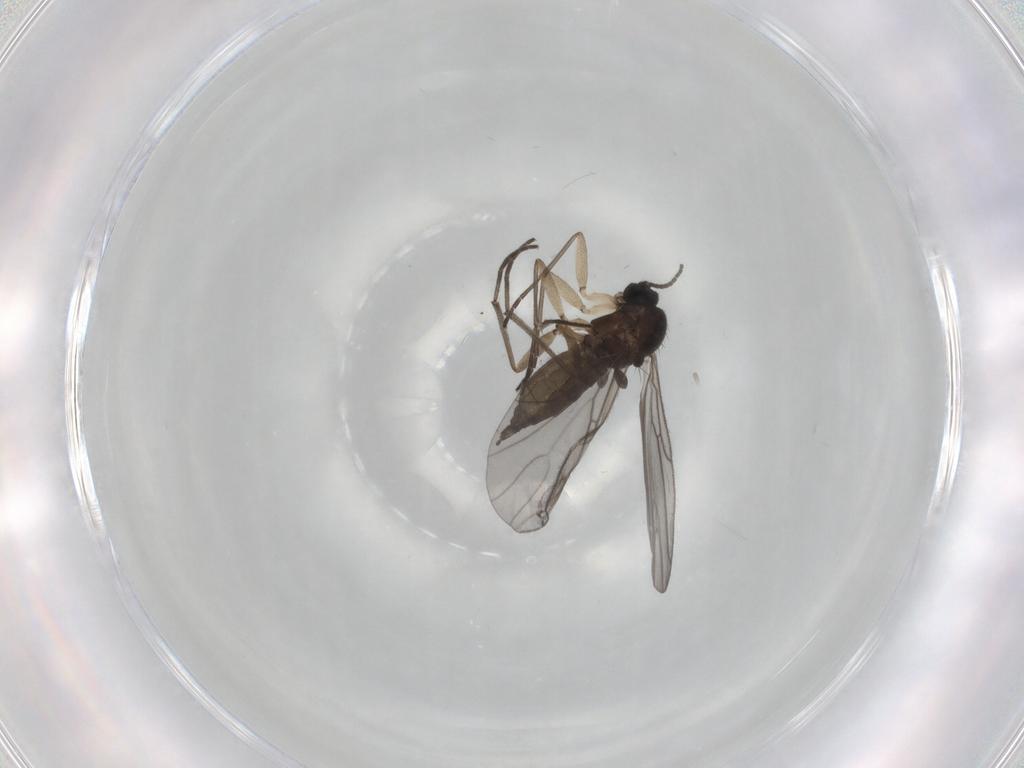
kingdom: Animalia
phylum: Arthropoda
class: Insecta
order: Diptera
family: Sciaridae
